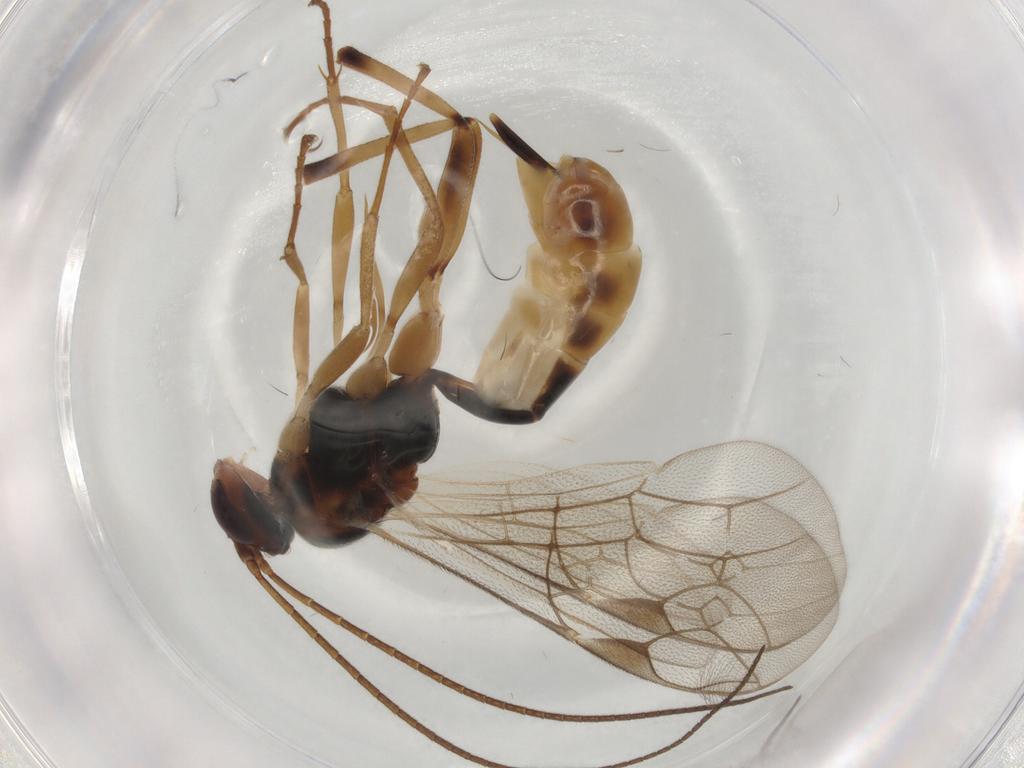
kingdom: Animalia
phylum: Arthropoda
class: Insecta
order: Hymenoptera
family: Ichneumonidae
